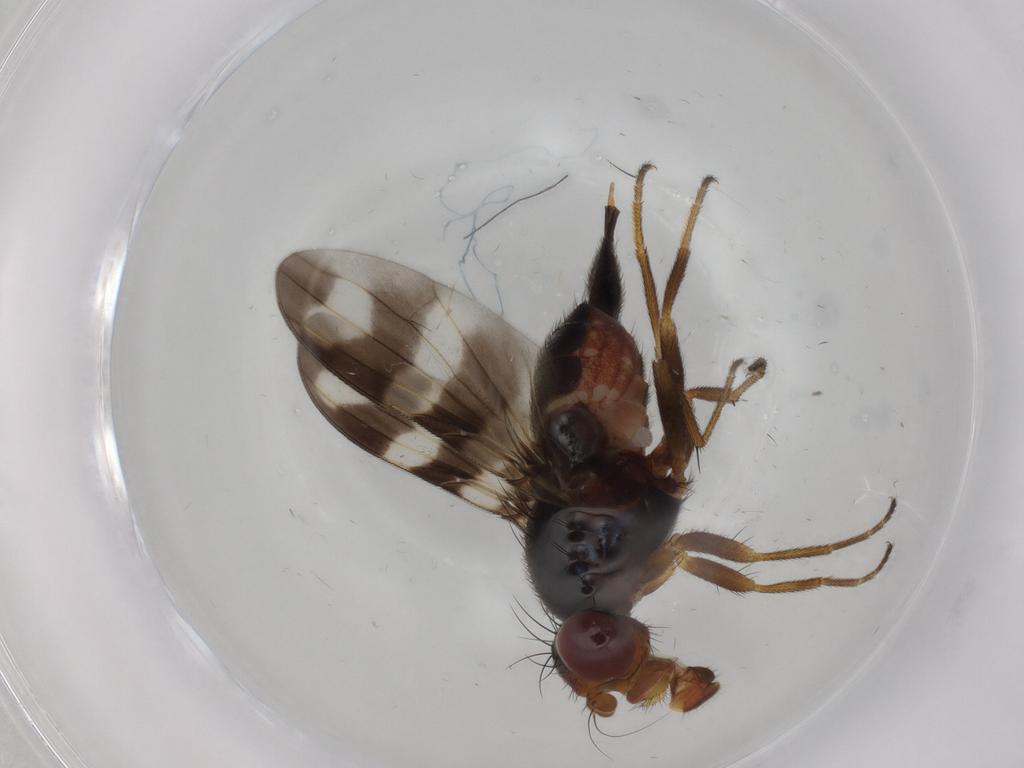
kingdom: Animalia
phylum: Arthropoda
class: Insecta
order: Diptera
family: Ulidiidae
